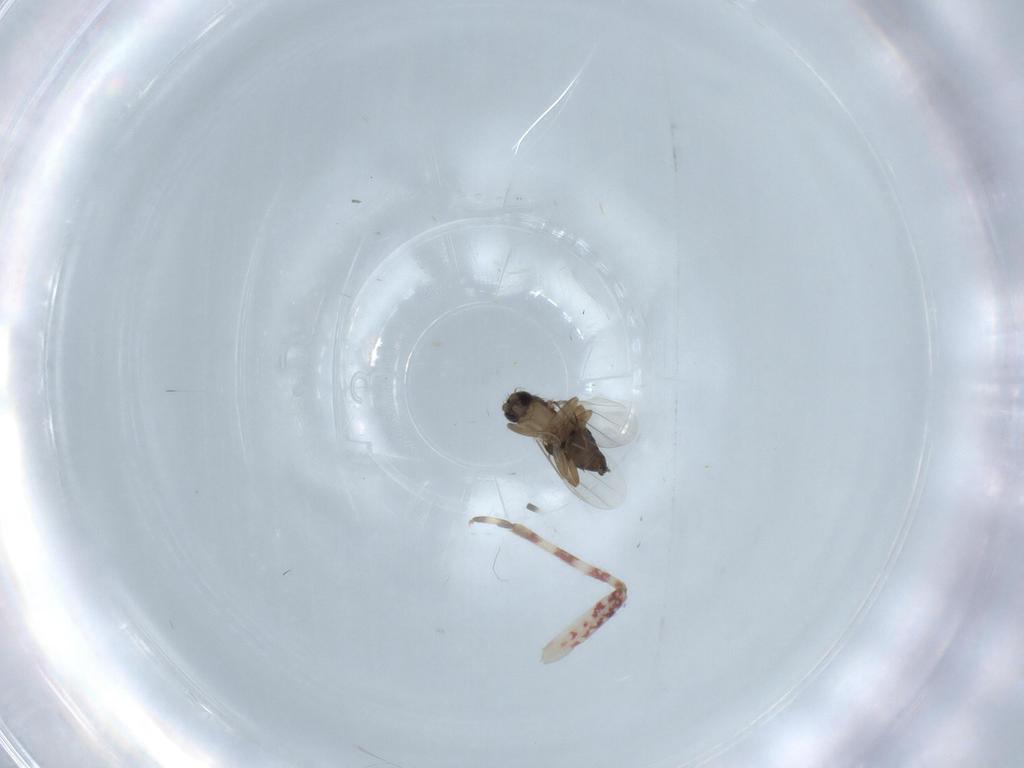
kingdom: Animalia
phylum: Arthropoda
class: Insecta
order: Diptera
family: Phoridae
